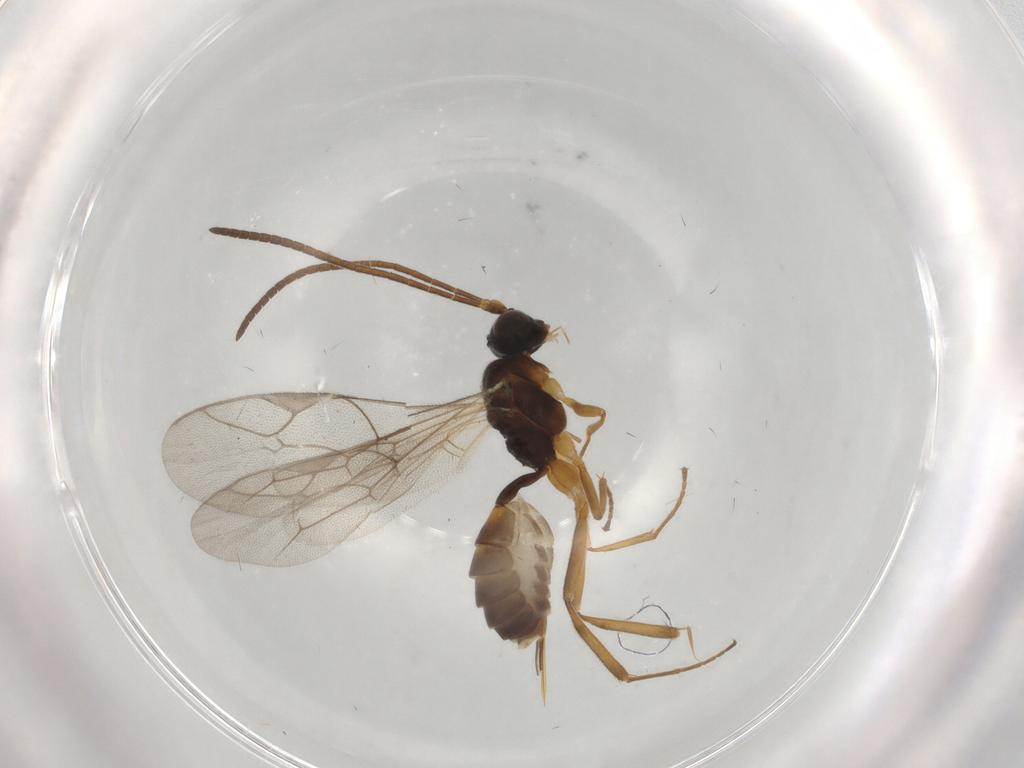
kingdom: Animalia
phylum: Arthropoda
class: Insecta
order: Hymenoptera
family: Ichneumonidae
